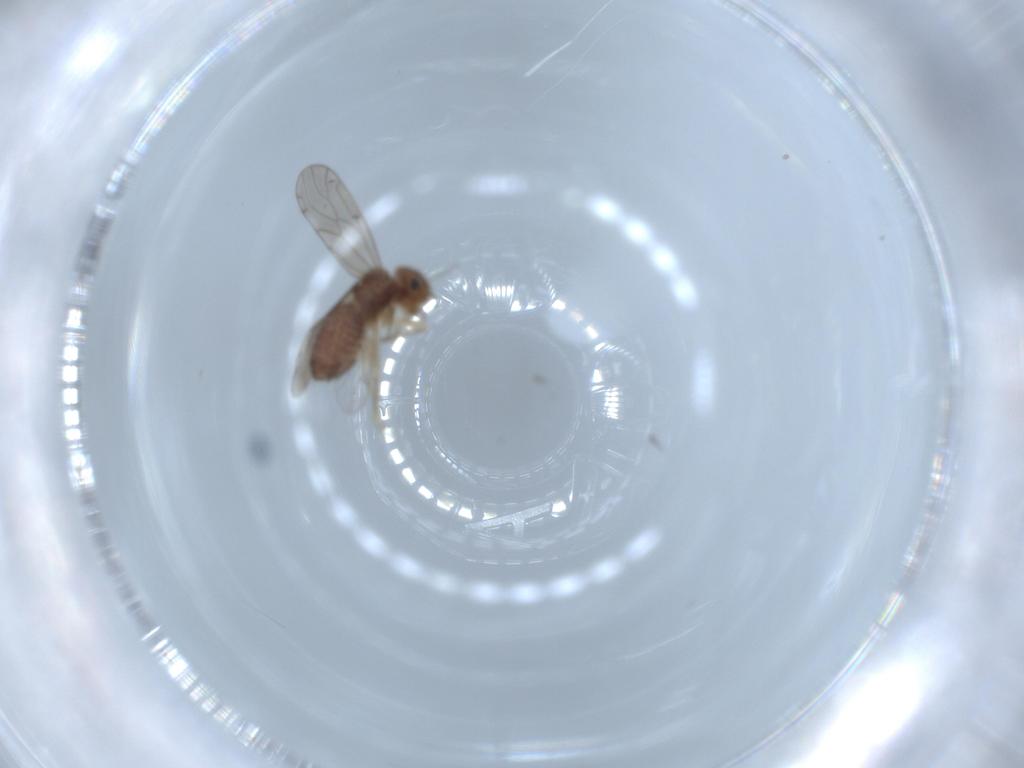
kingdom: Animalia
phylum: Arthropoda
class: Insecta
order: Psocodea
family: Ectopsocidae
